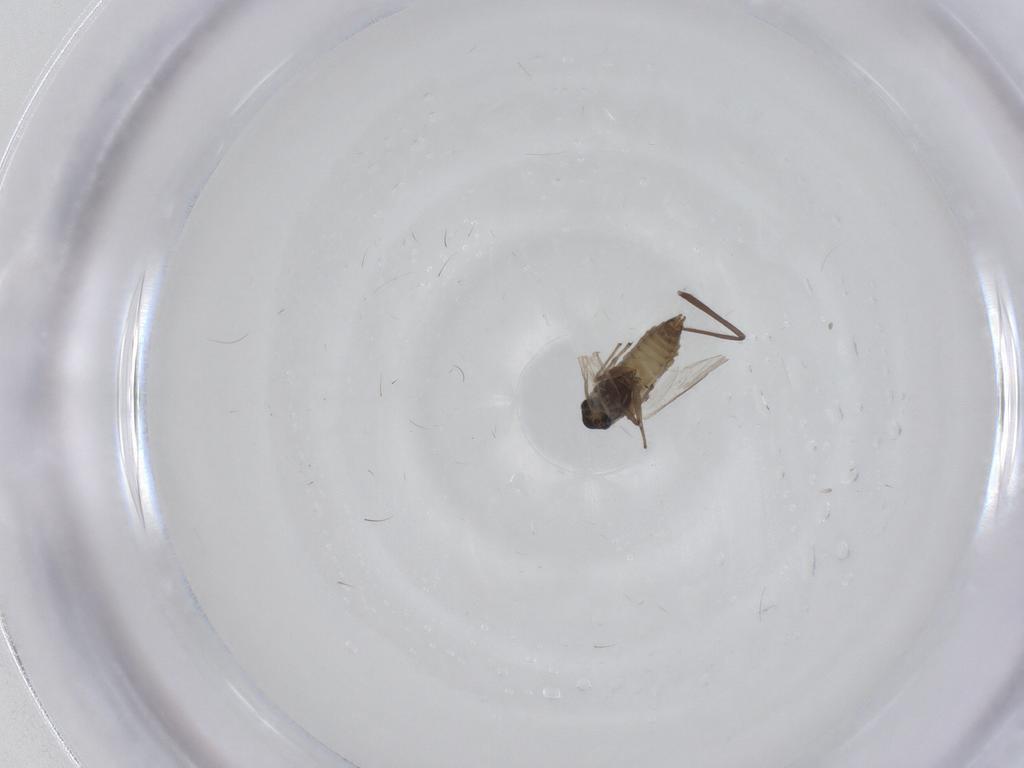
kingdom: Animalia
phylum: Arthropoda
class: Insecta
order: Diptera
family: Chironomidae
